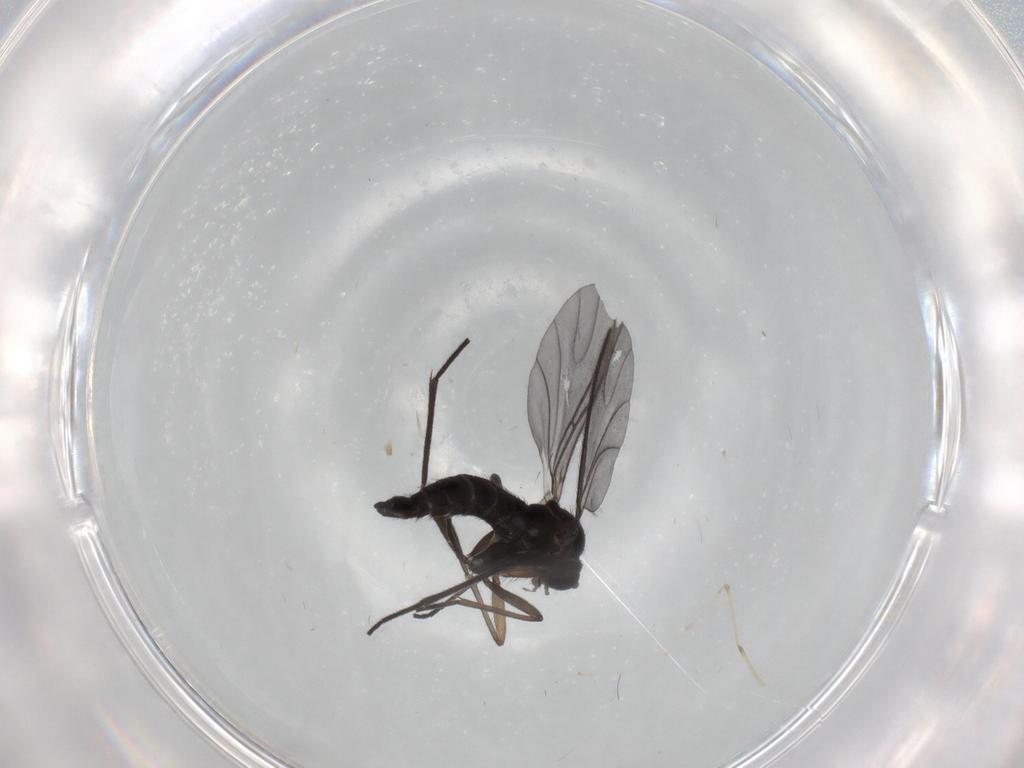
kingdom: Animalia
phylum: Arthropoda
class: Insecta
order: Diptera
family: Sciaridae
